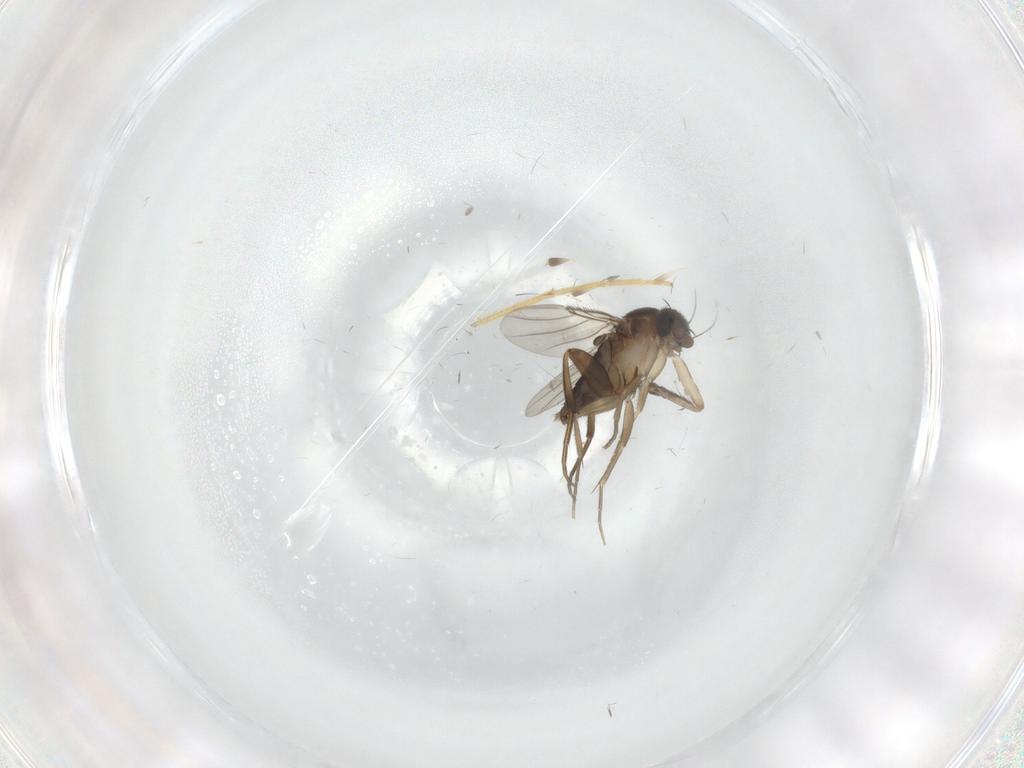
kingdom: Animalia
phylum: Arthropoda
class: Insecta
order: Diptera
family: Phoridae
